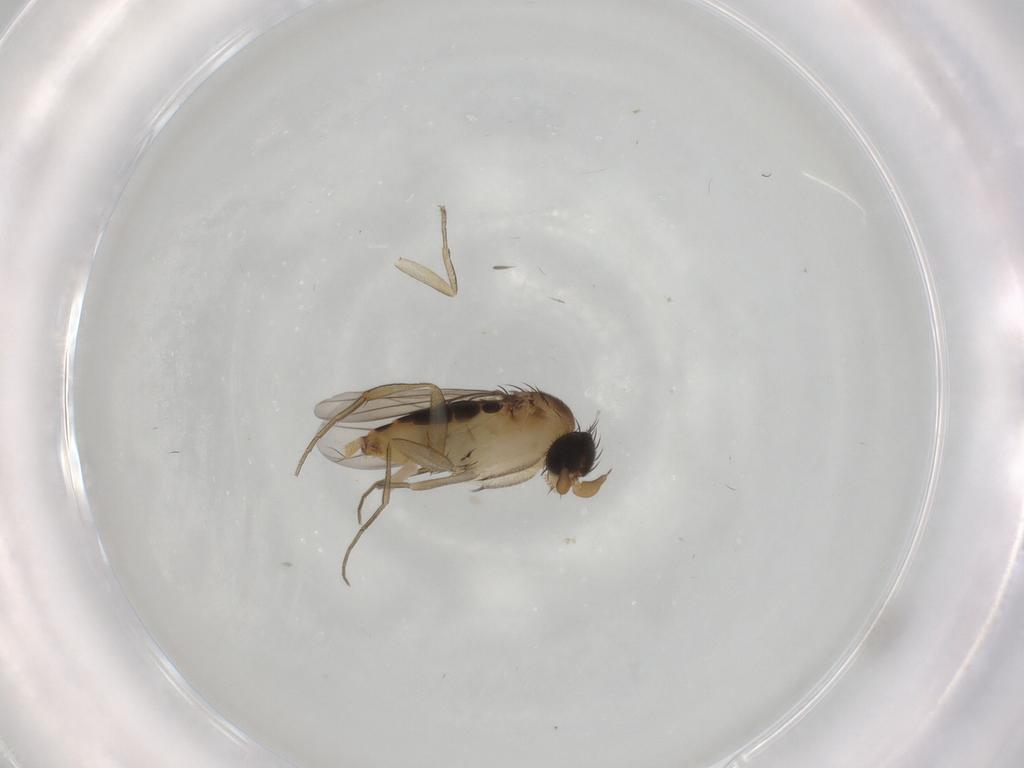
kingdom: Animalia
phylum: Arthropoda
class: Insecta
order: Diptera
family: Phoridae
